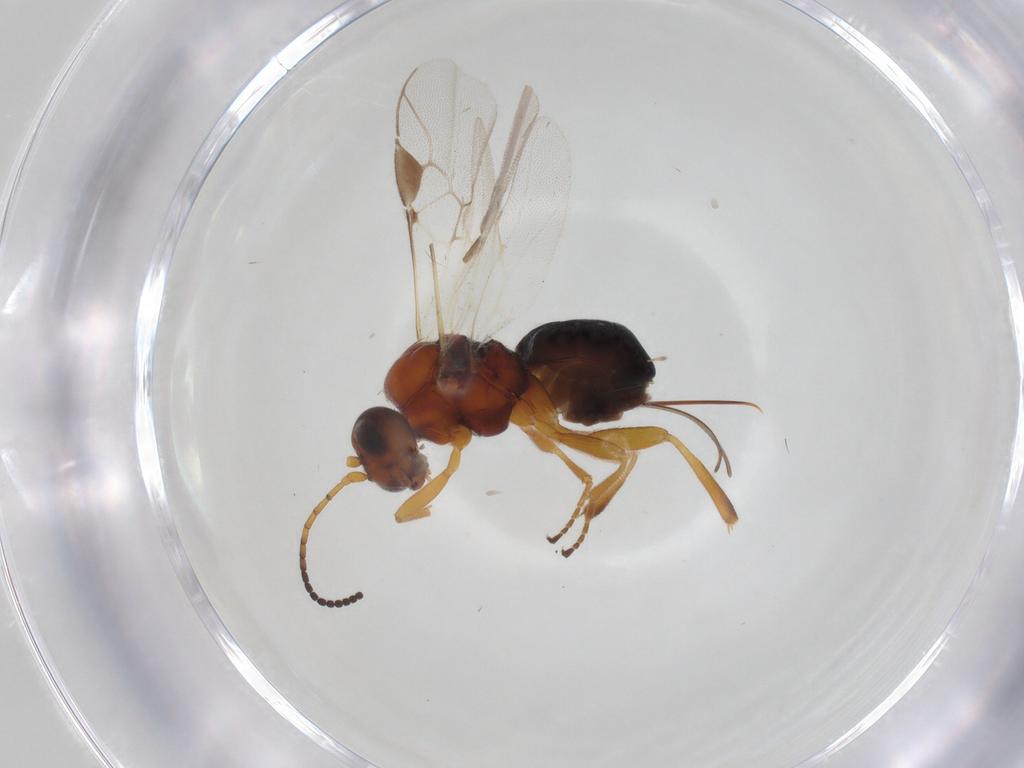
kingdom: Animalia
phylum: Arthropoda
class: Insecta
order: Hymenoptera
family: Braconidae
